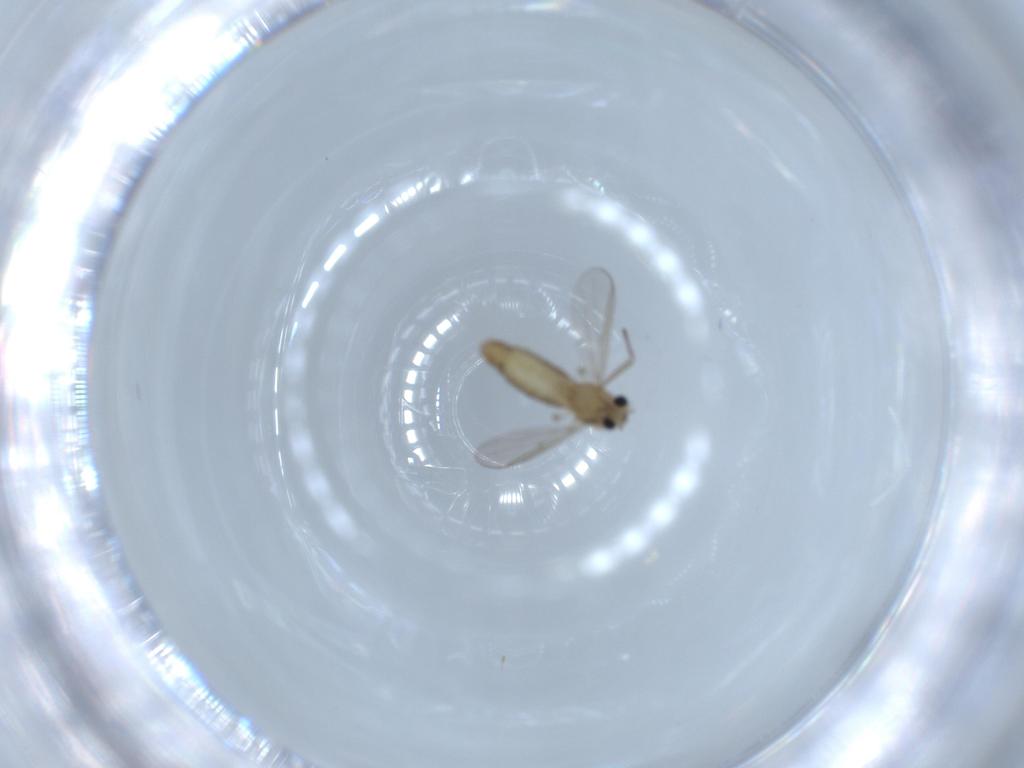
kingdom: Animalia
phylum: Arthropoda
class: Insecta
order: Diptera
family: Chironomidae
